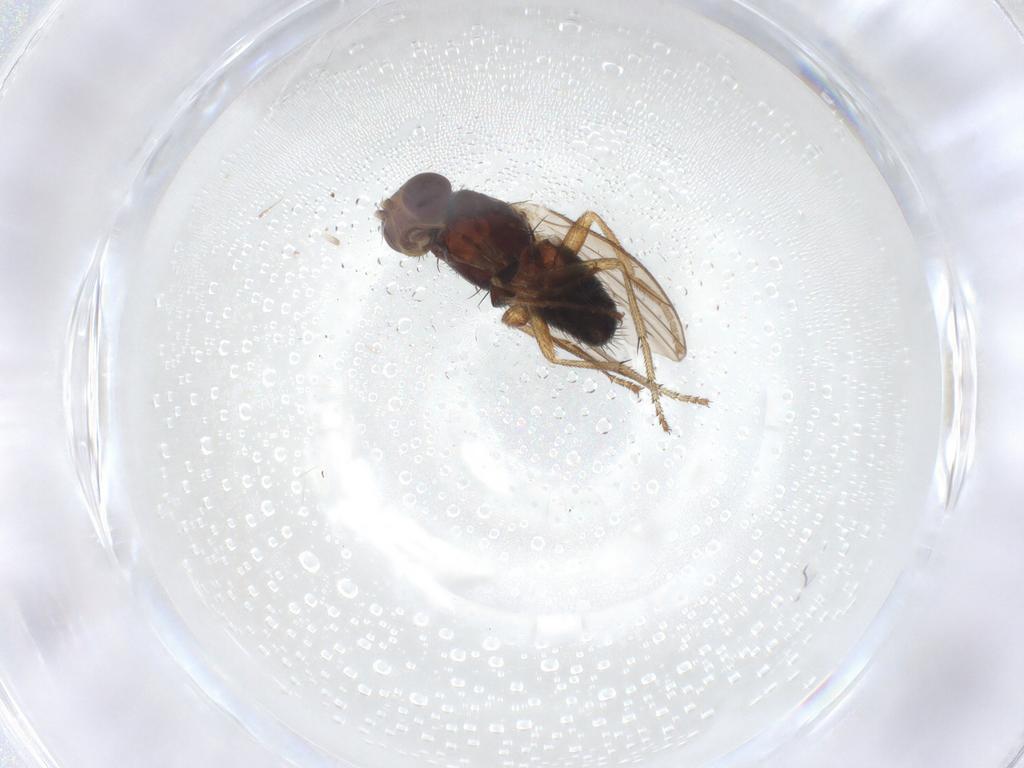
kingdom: Animalia
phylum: Arthropoda
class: Insecta
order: Diptera
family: Heleomyzidae
